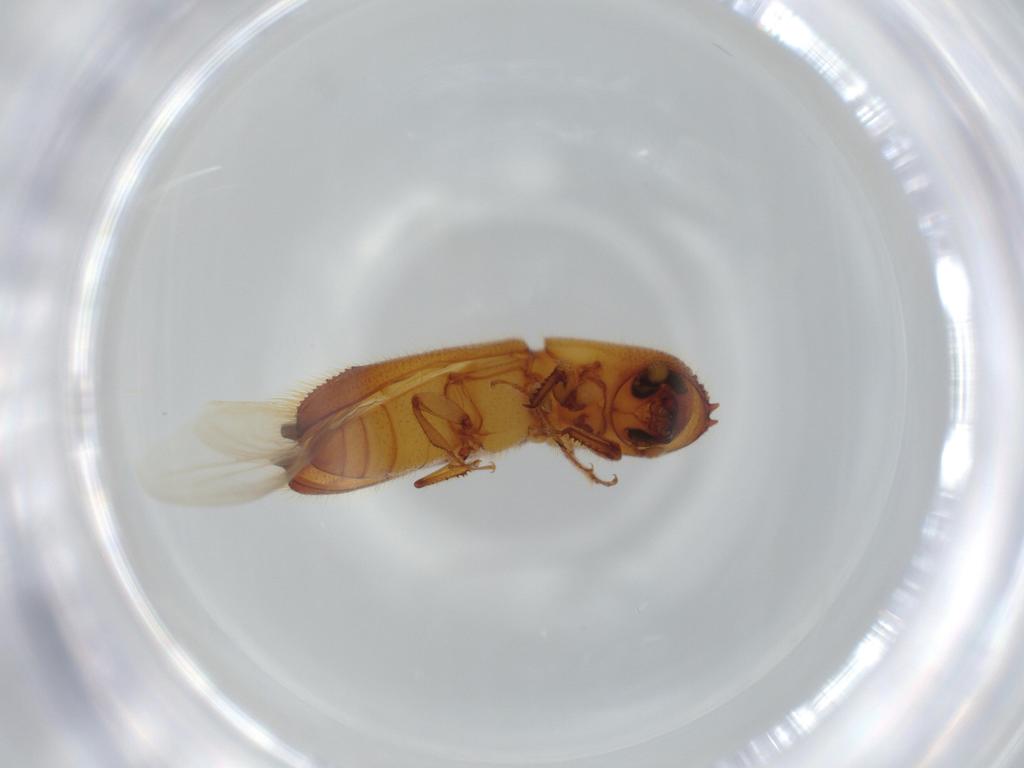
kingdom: Animalia
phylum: Arthropoda
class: Insecta
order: Coleoptera
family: Curculionidae
